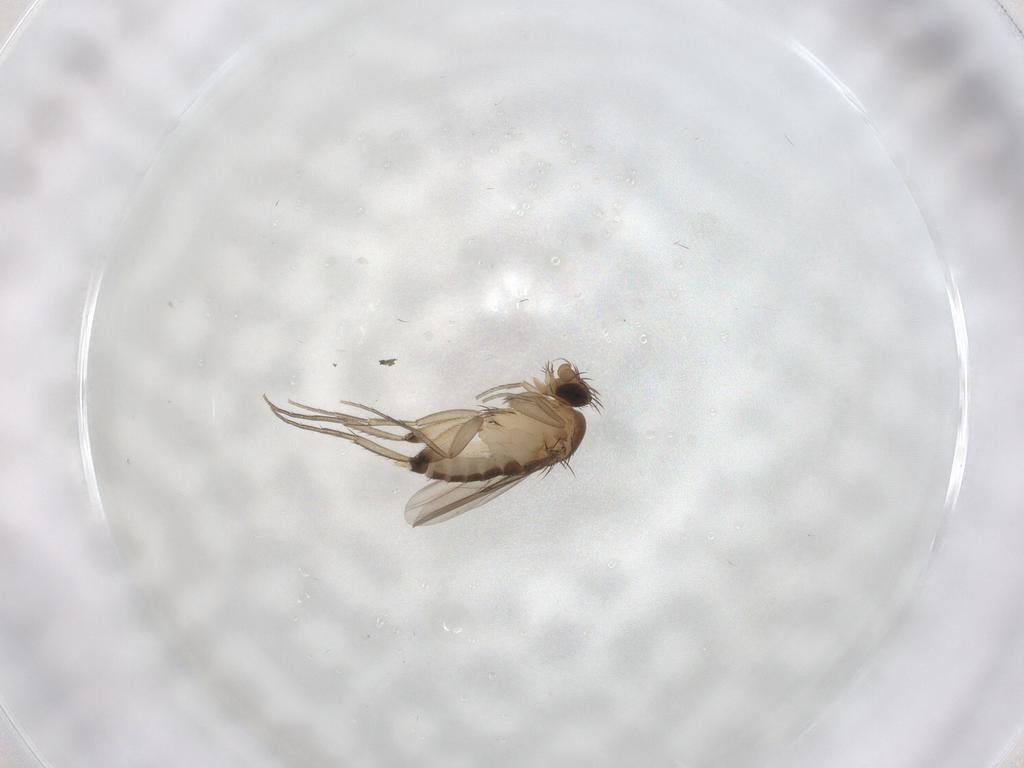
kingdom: Animalia
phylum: Arthropoda
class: Insecta
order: Diptera
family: Phoridae
